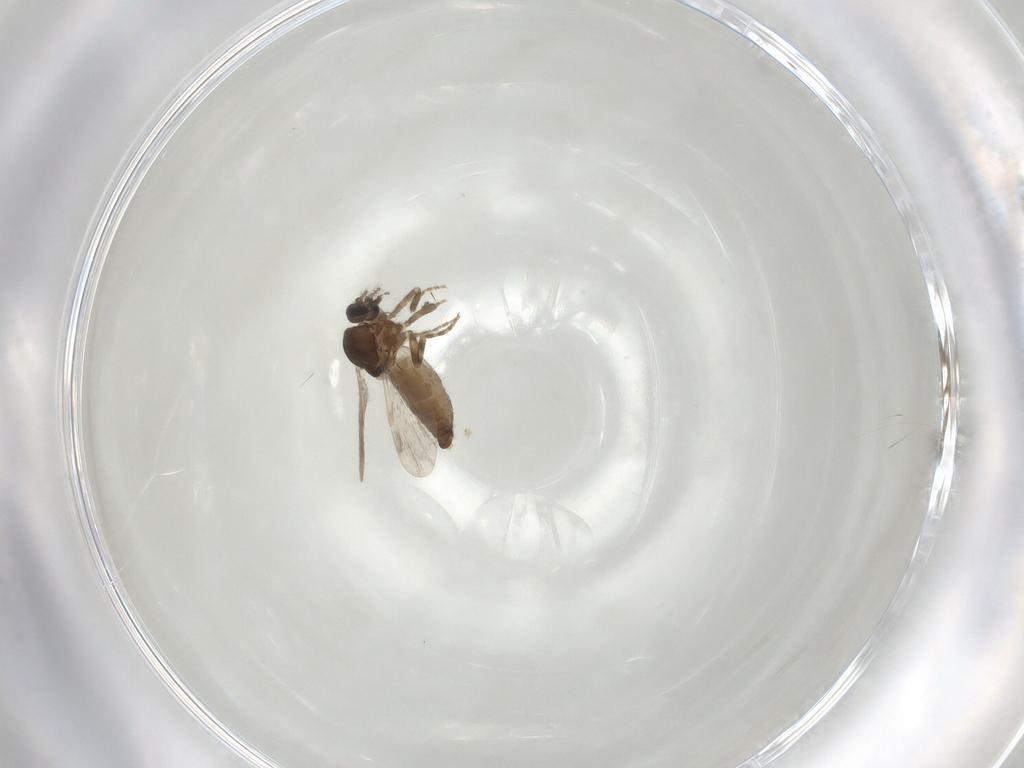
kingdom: Animalia
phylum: Arthropoda
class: Insecta
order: Diptera
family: Ceratopogonidae
